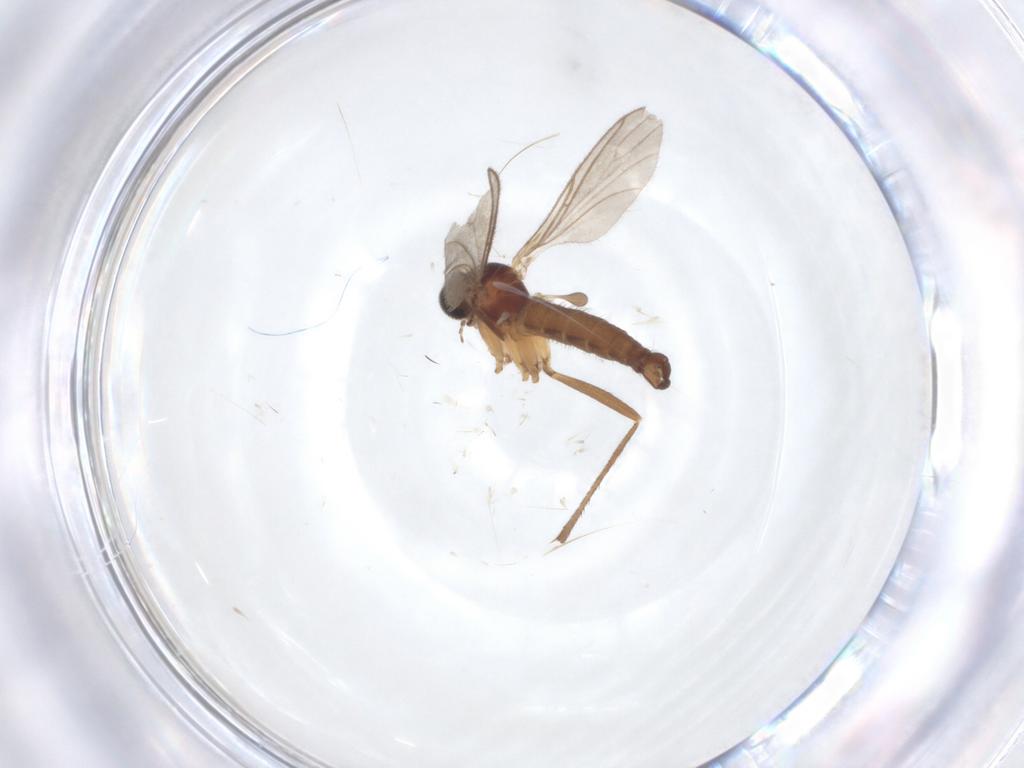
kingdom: Animalia
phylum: Arthropoda
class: Insecta
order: Diptera
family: Sciaridae
